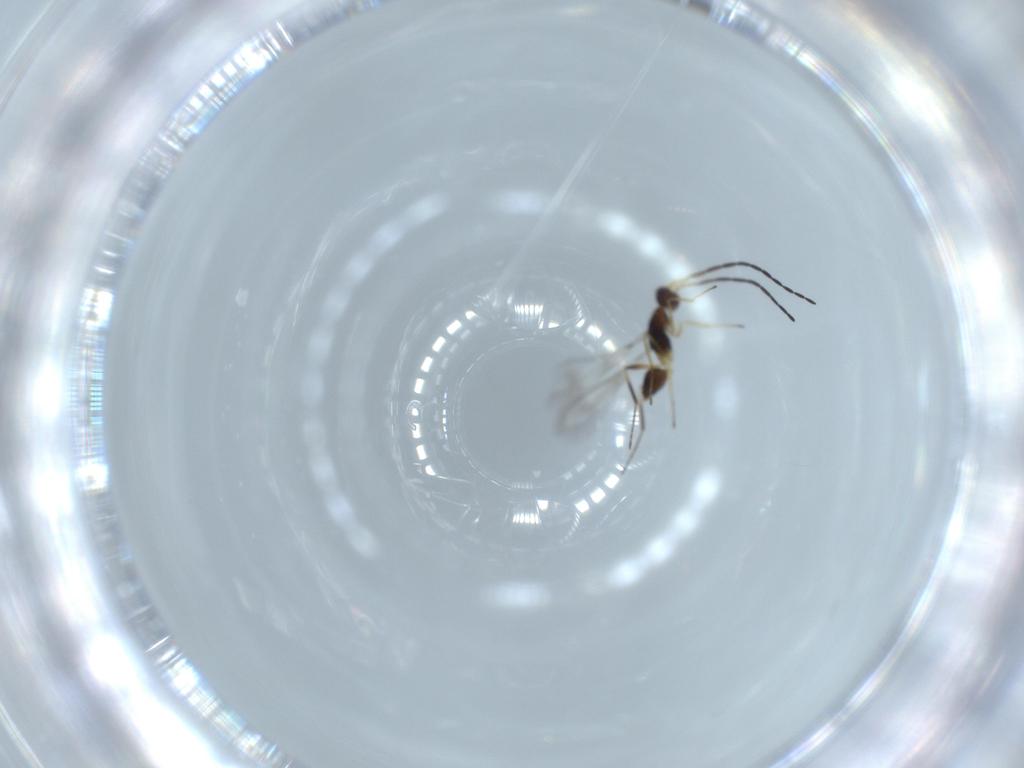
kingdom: Animalia
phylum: Arthropoda
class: Insecta
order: Hymenoptera
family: Mymaridae
